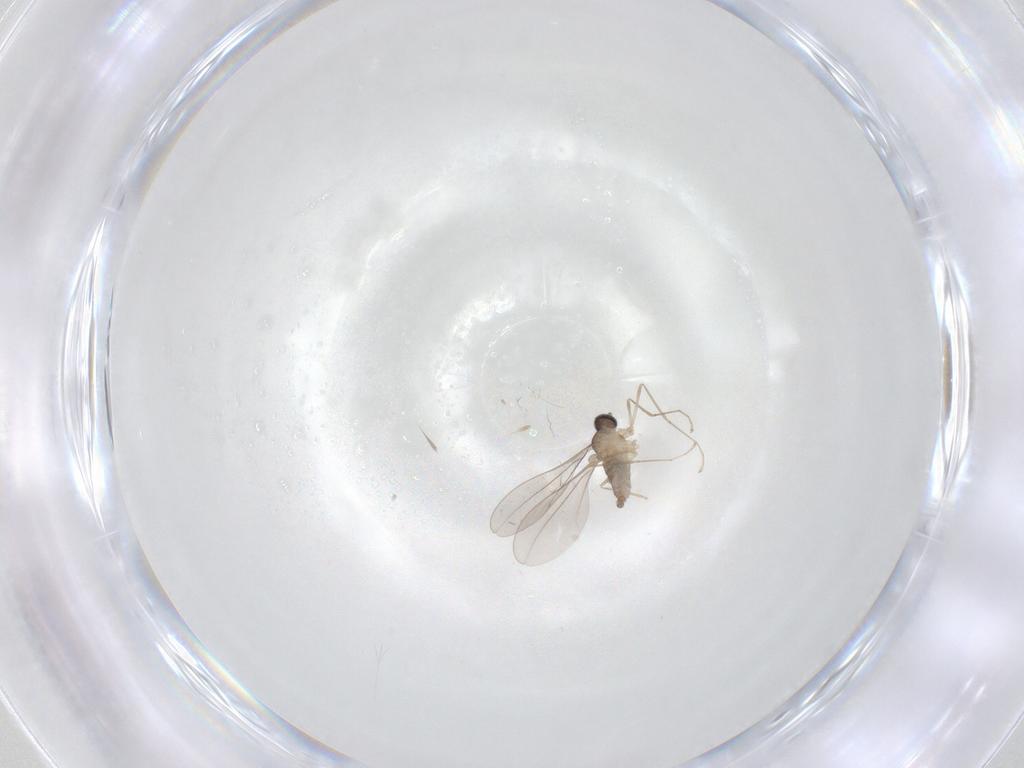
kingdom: Animalia
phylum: Arthropoda
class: Insecta
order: Diptera
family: Cecidomyiidae
